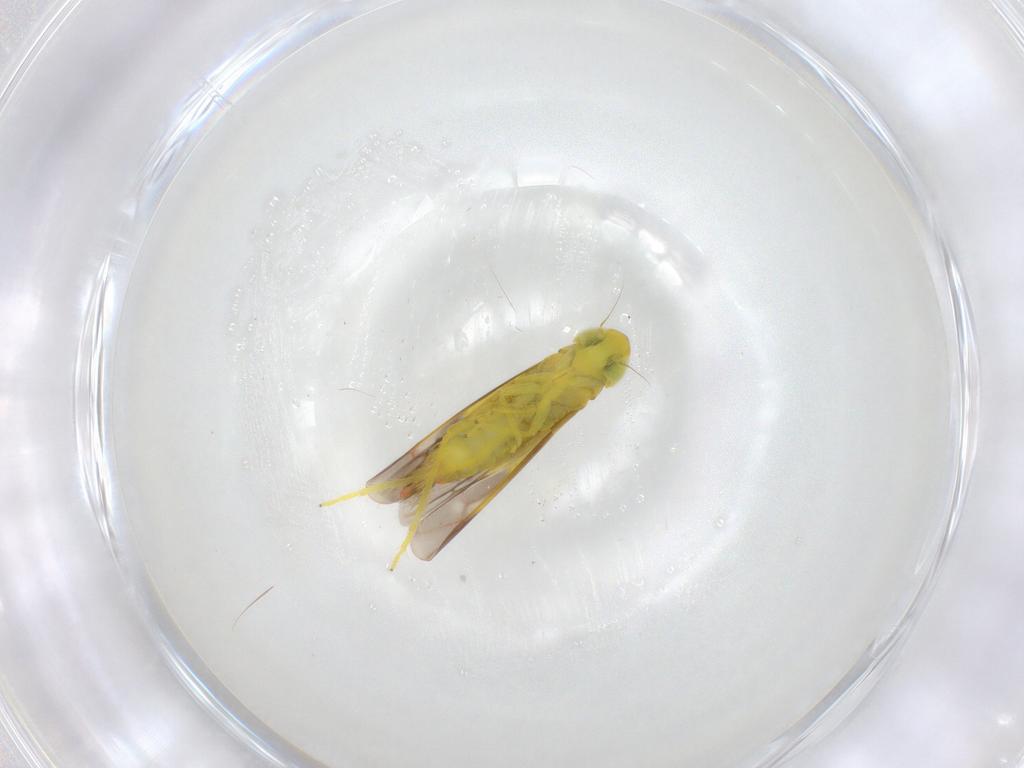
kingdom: Animalia
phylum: Arthropoda
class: Insecta
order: Hemiptera
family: Cicadellidae
